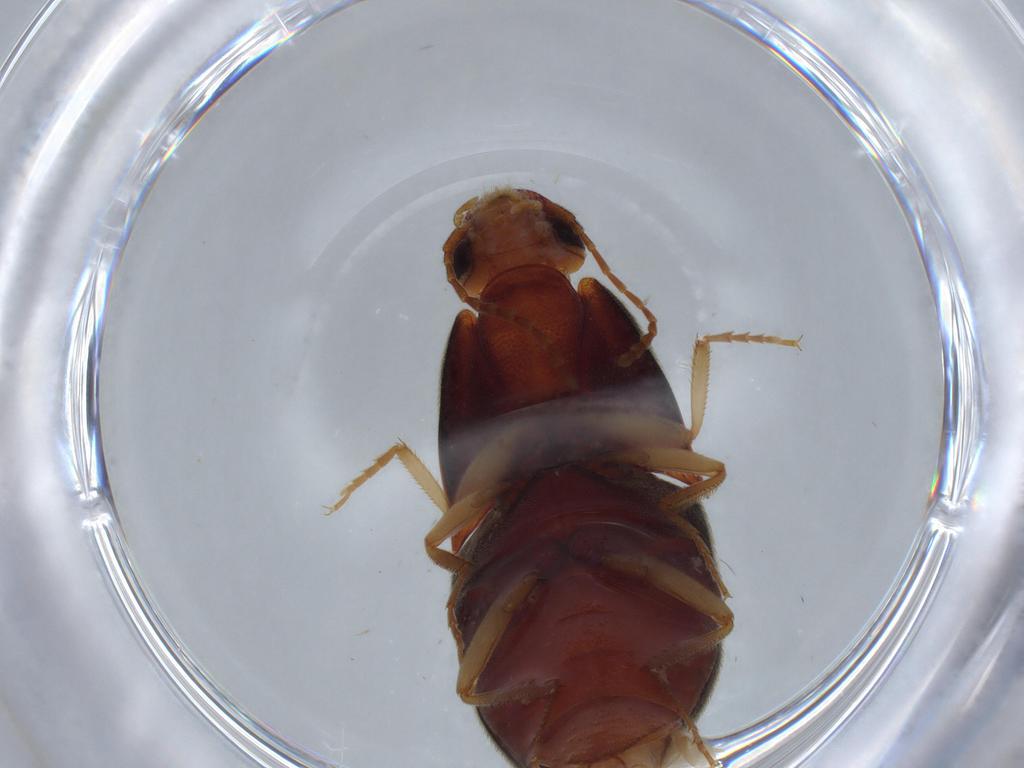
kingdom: Animalia
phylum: Arthropoda
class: Insecta
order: Coleoptera
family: Elateridae
